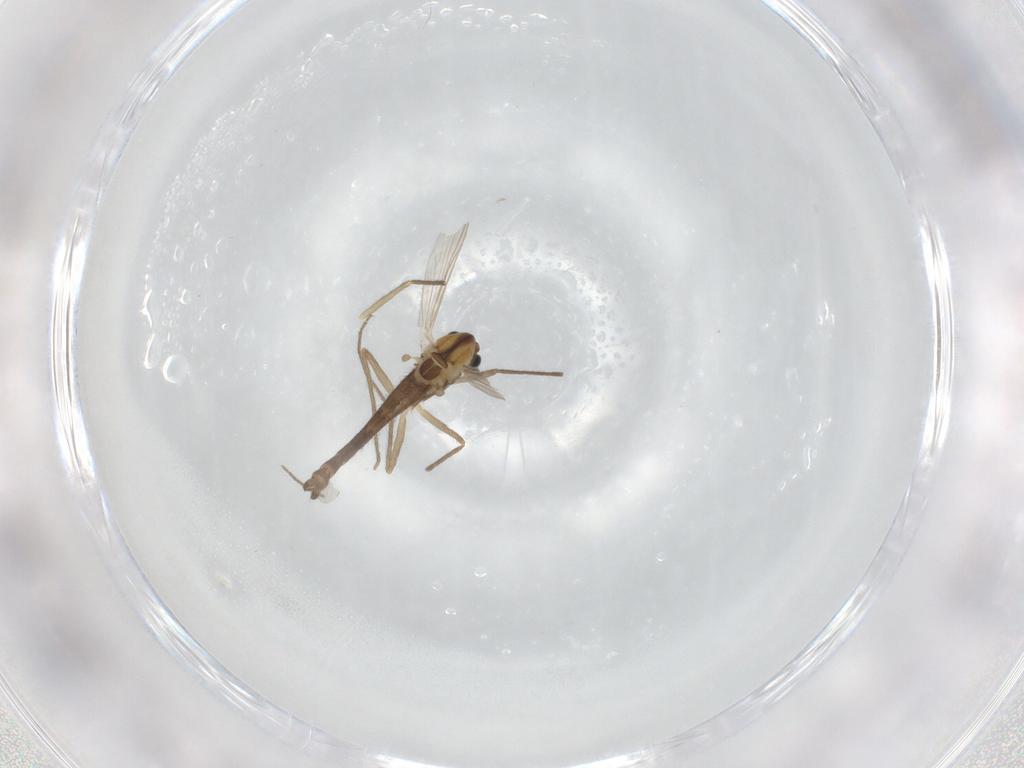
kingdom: Animalia
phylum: Arthropoda
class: Insecta
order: Diptera
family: Chironomidae
